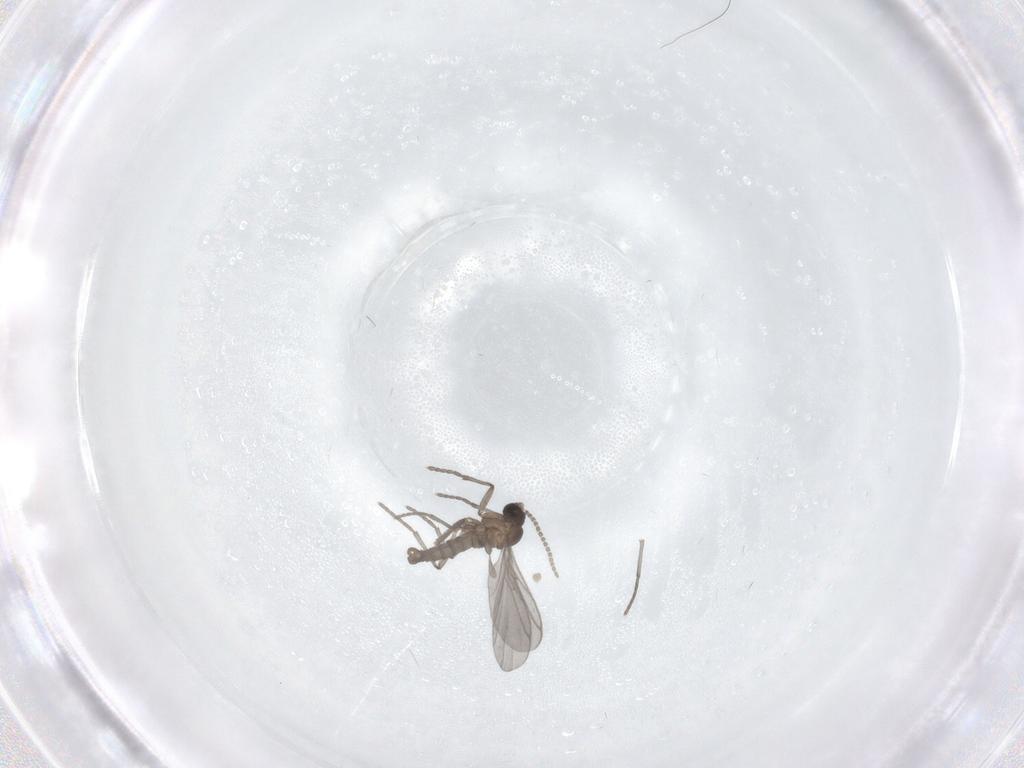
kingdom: Animalia
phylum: Arthropoda
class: Insecta
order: Diptera
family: Sciaridae
